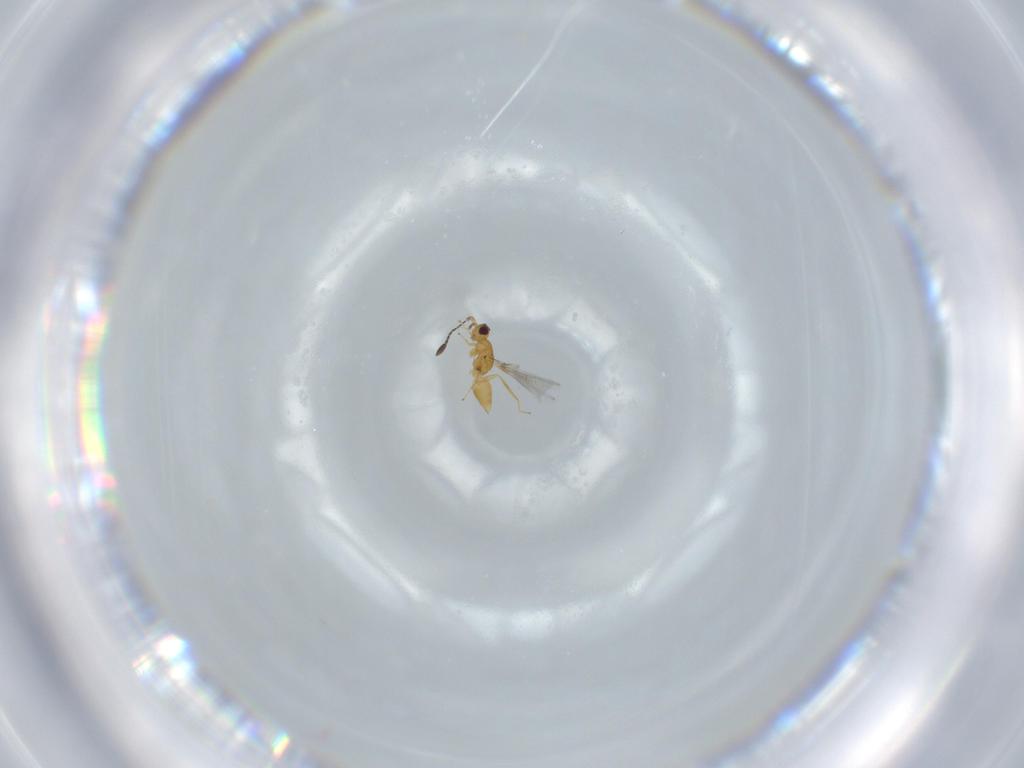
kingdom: Animalia
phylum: Arthropoda
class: Insecta
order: Hymenoptera
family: Mymaridae
